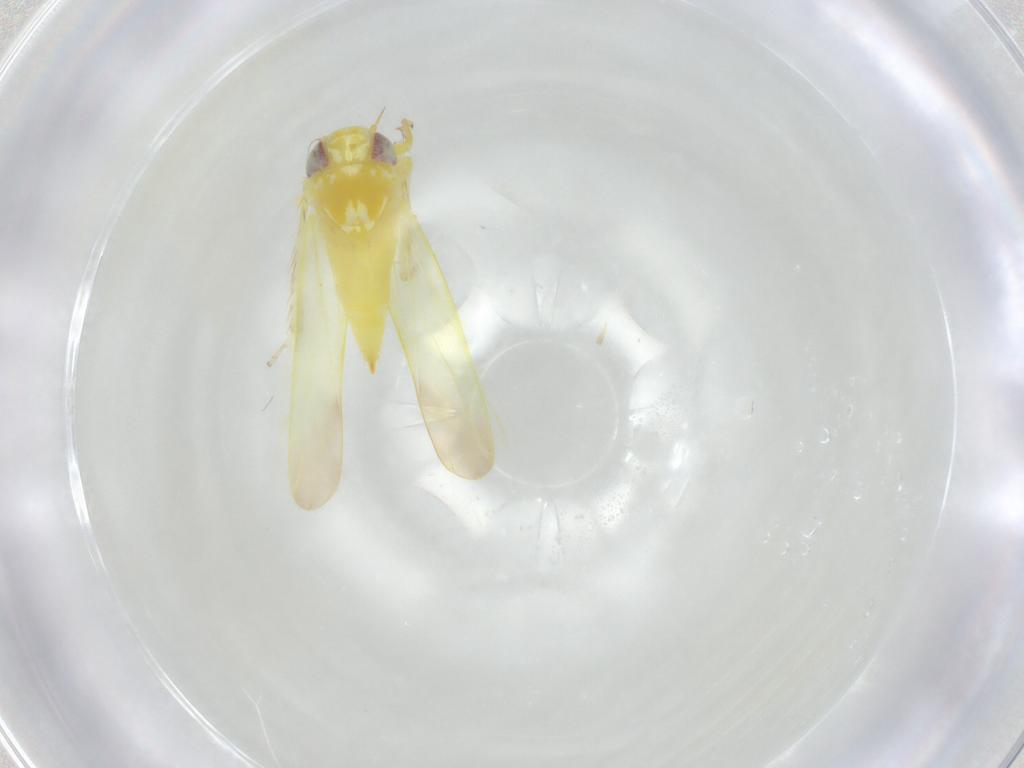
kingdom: Animalia
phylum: Arthropoda
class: Insecta
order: Hemiptera
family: Cicadellidae
